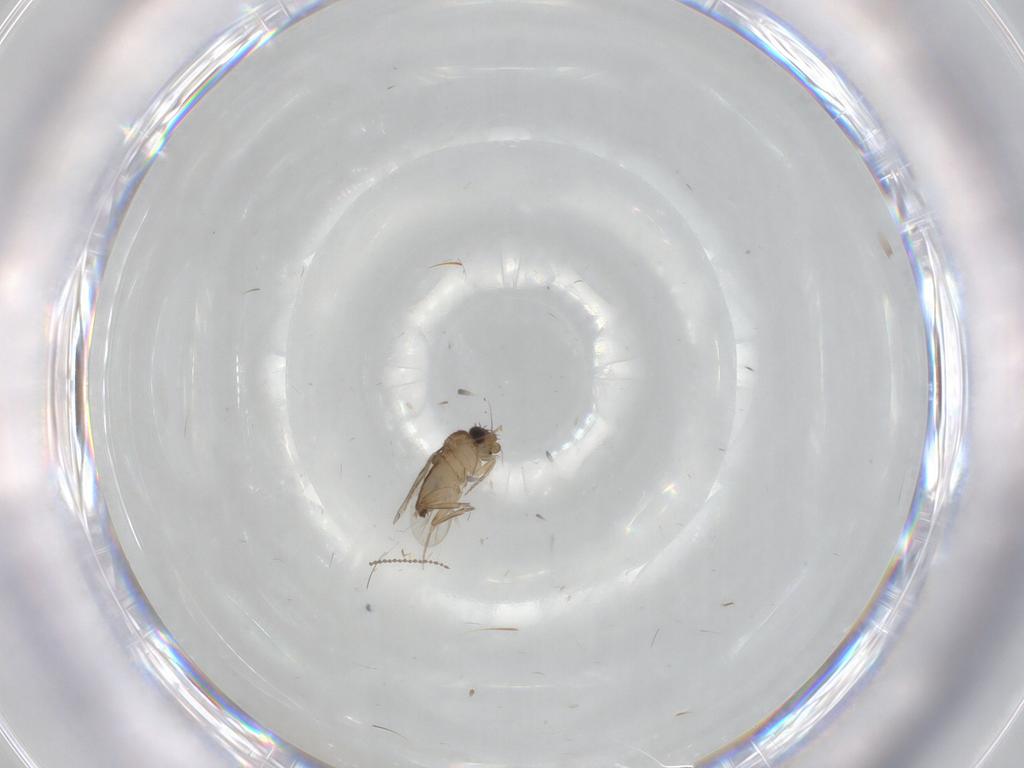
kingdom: Animalia
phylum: Arthropoda
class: Insecta
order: Diptera
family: Phoridae
